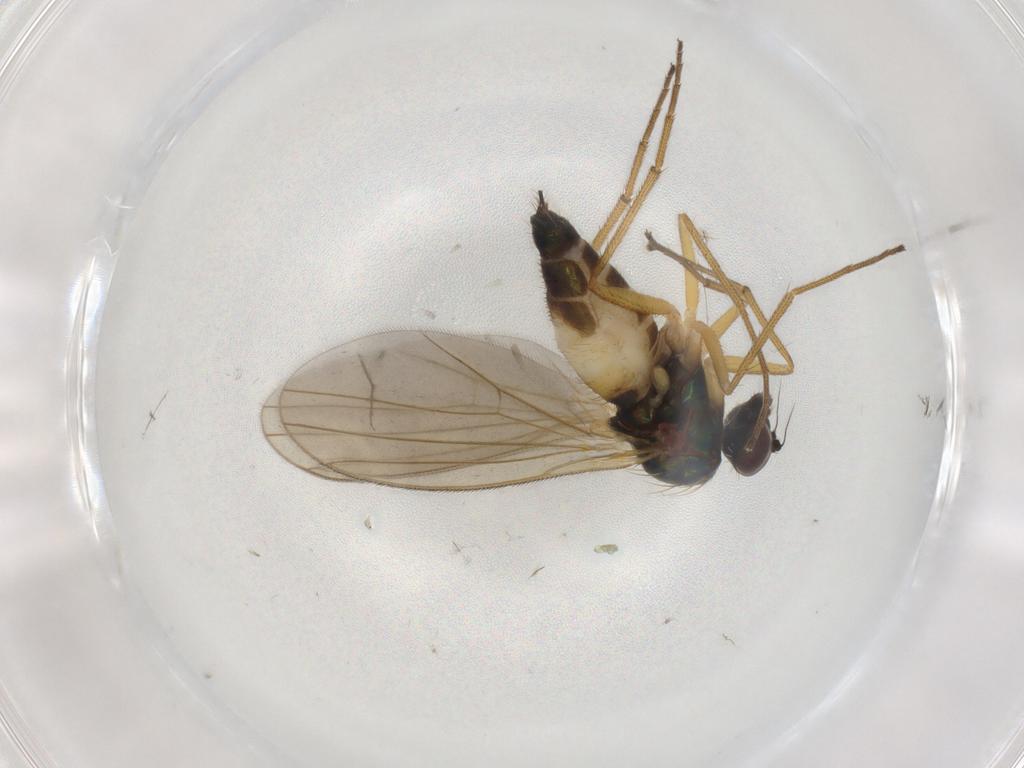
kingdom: Animalia
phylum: Arthropoda
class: Insecta
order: Diptera
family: Dolichopodidae
